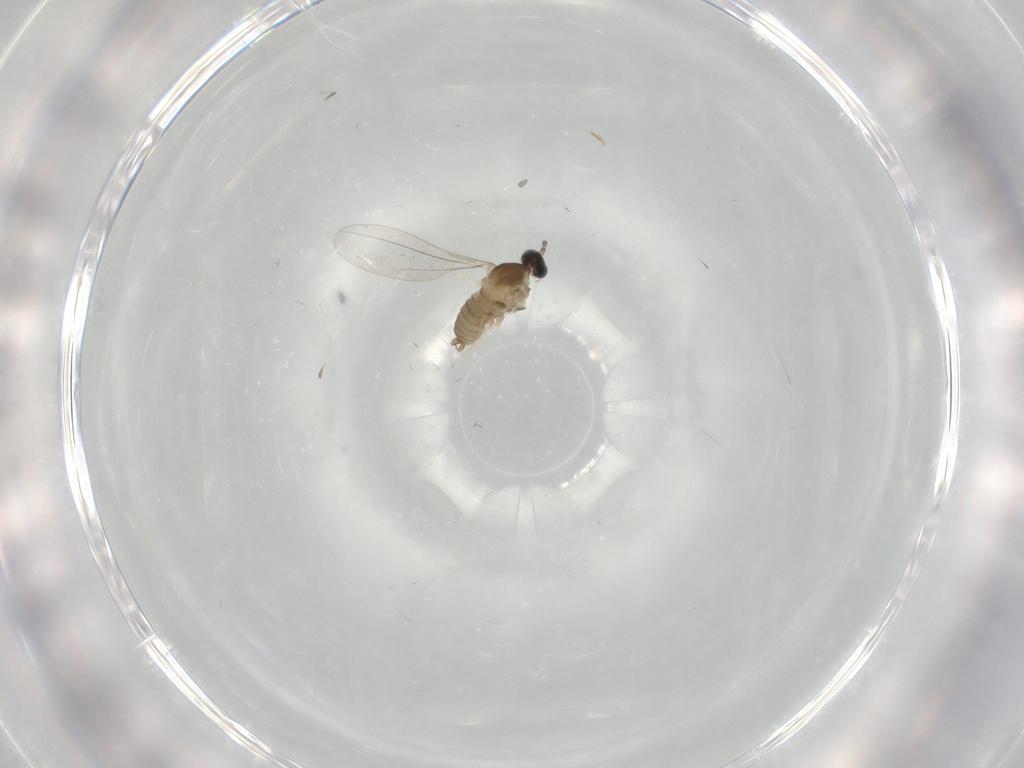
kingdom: Animalia
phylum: Arthropoda
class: Insecta
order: Diptera
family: Cecidomyiidae
